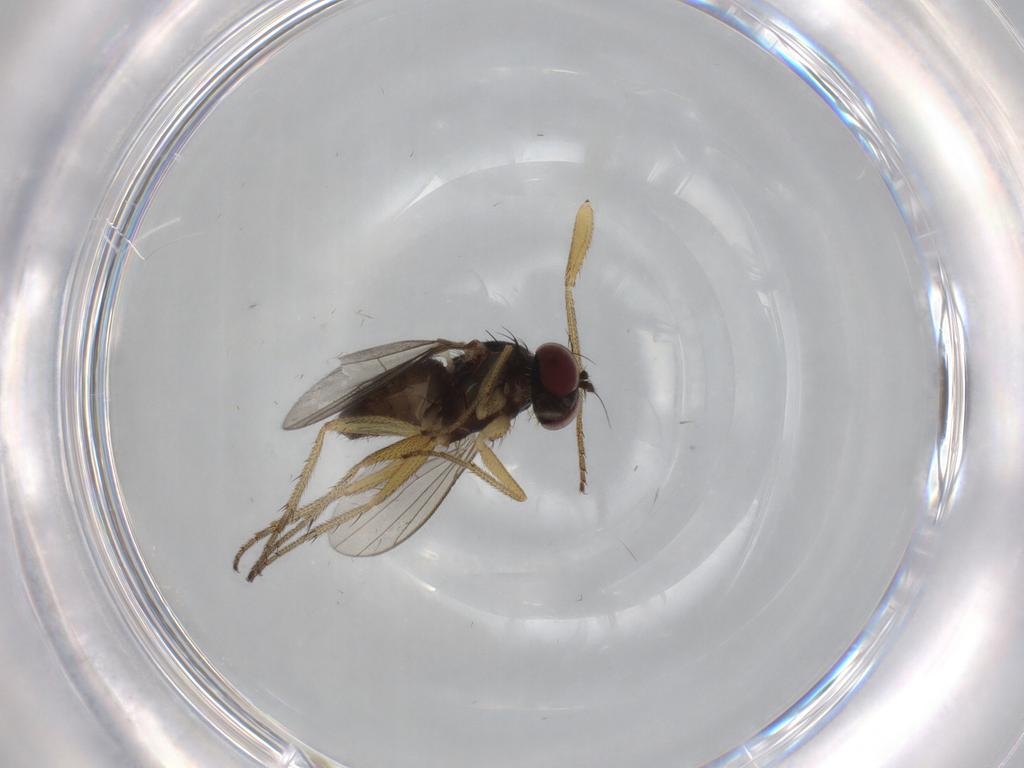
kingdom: Animalia
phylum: Arthropoda
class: Insecta
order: Diptera
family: Dolichopodidae
